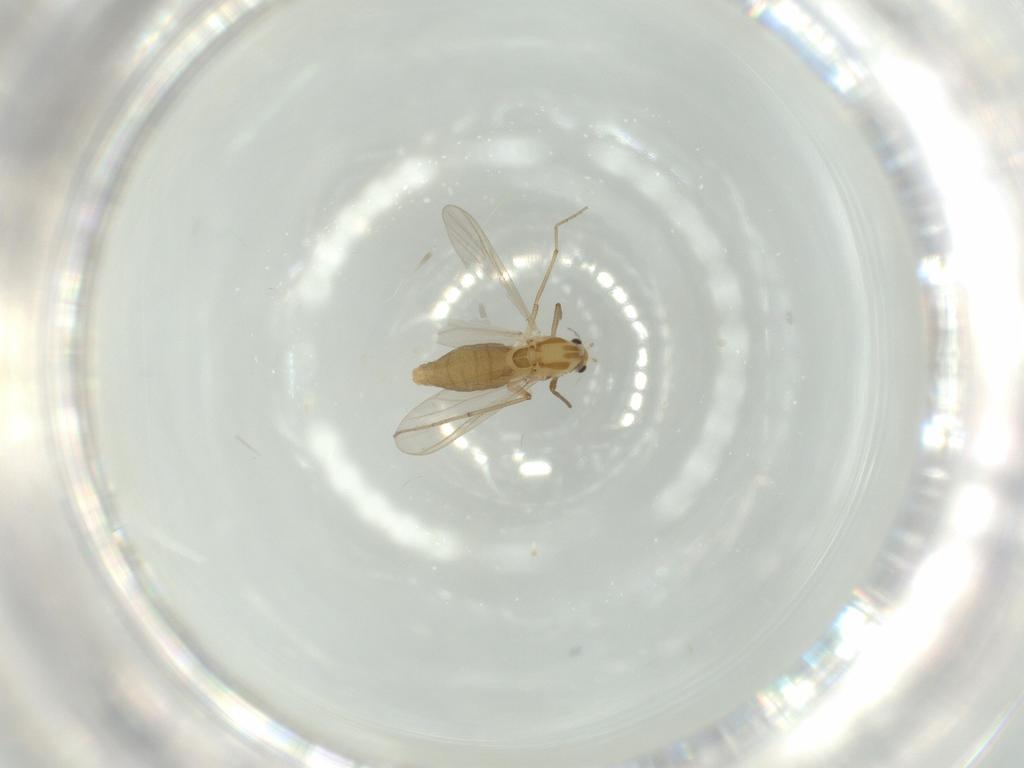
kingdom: Animalia
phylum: Arthropoda
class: Insecta
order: Diptera
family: Chironomidae
